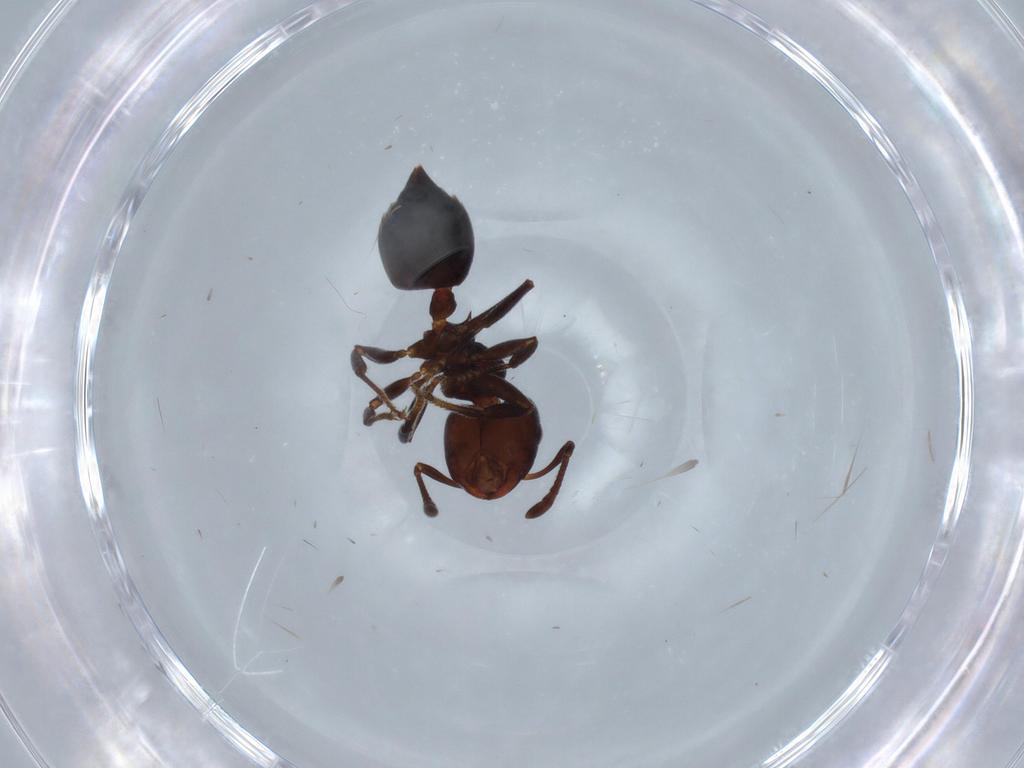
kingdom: Animalia
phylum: Arthropoda
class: Insecta
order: Hymenoptera
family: Formicidae
